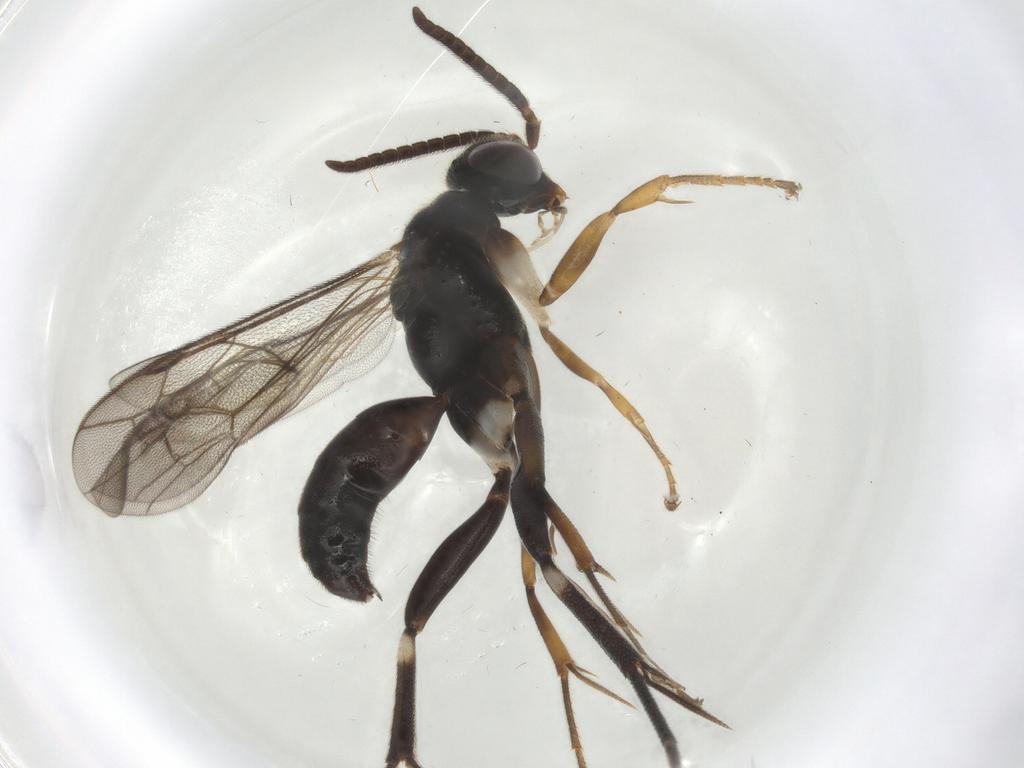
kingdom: Animalia
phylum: Arthropoda
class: Insecta
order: Hymenoptera
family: Pompilidae
